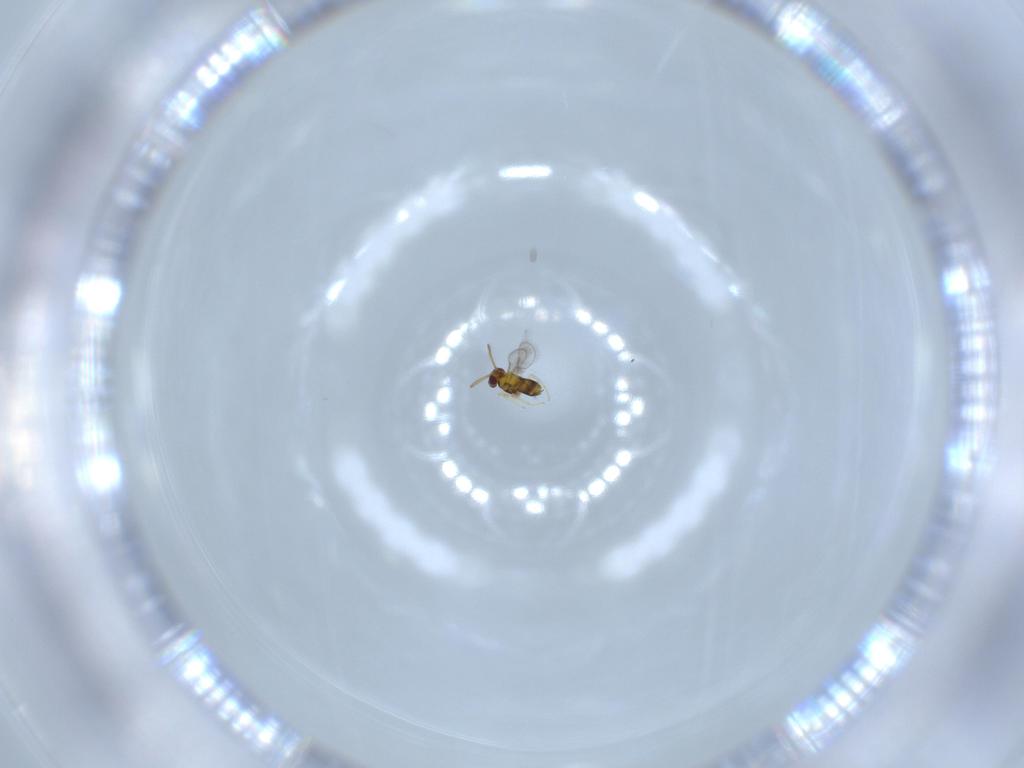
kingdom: Animalia
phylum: Arthropoda
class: Insecta
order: Hymenoptera
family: Aphelinidae
